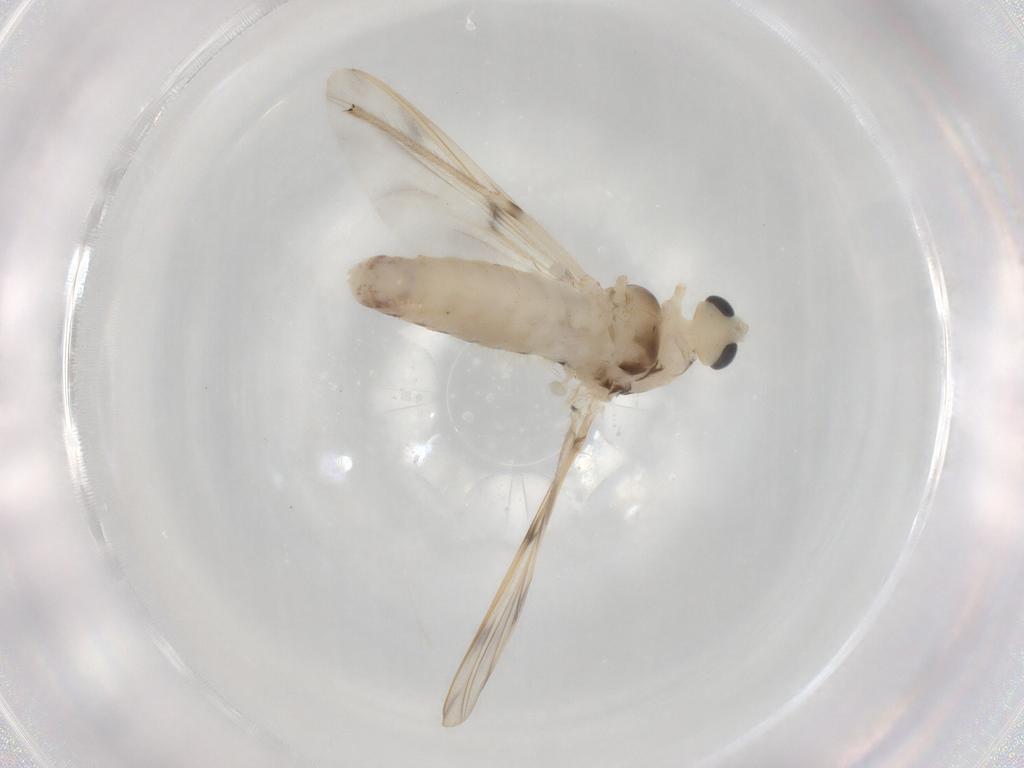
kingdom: Animalia
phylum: Arthropoda
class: Insecta
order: Diptera
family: Chironomidae
